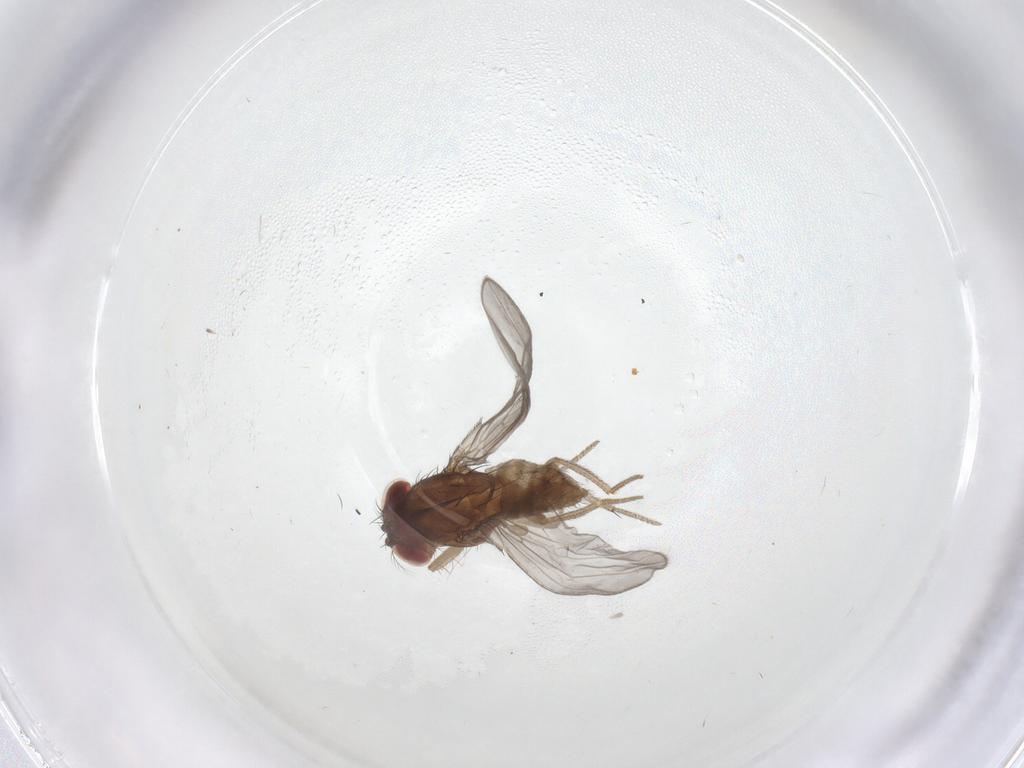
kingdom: Animalia
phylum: Arthropoda
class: Insecta
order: Diptera
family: Drosophilidae
